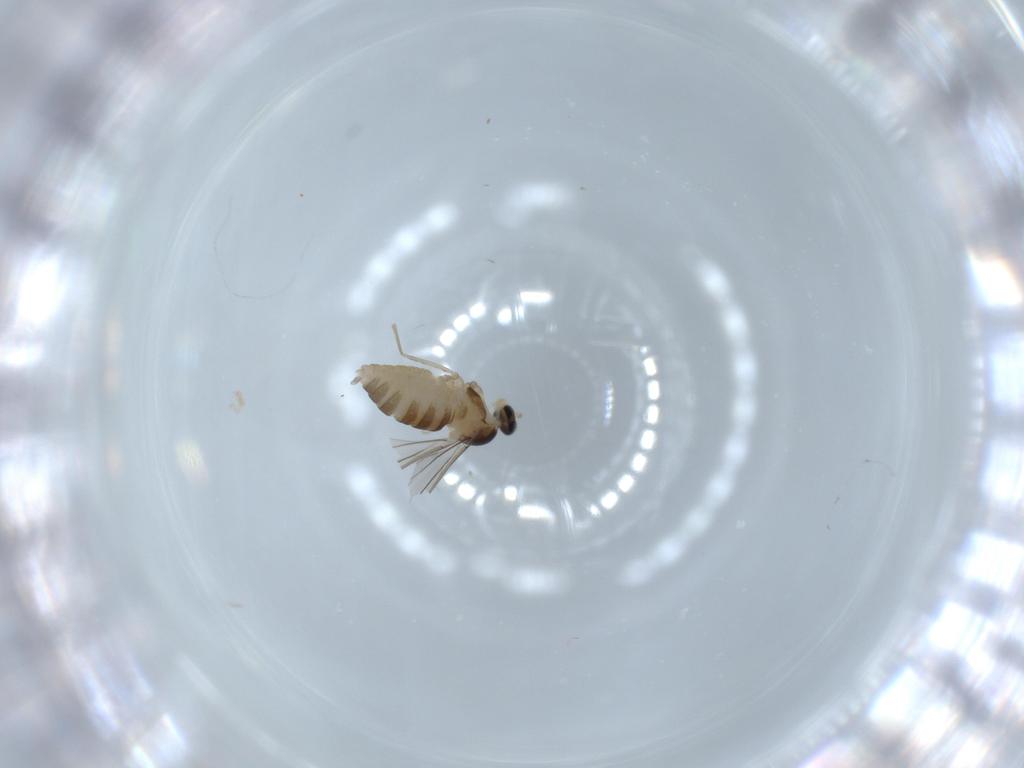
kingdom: Animalia
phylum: Arthropoda
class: Insecta
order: Diptera
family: Cecidomyiidae
